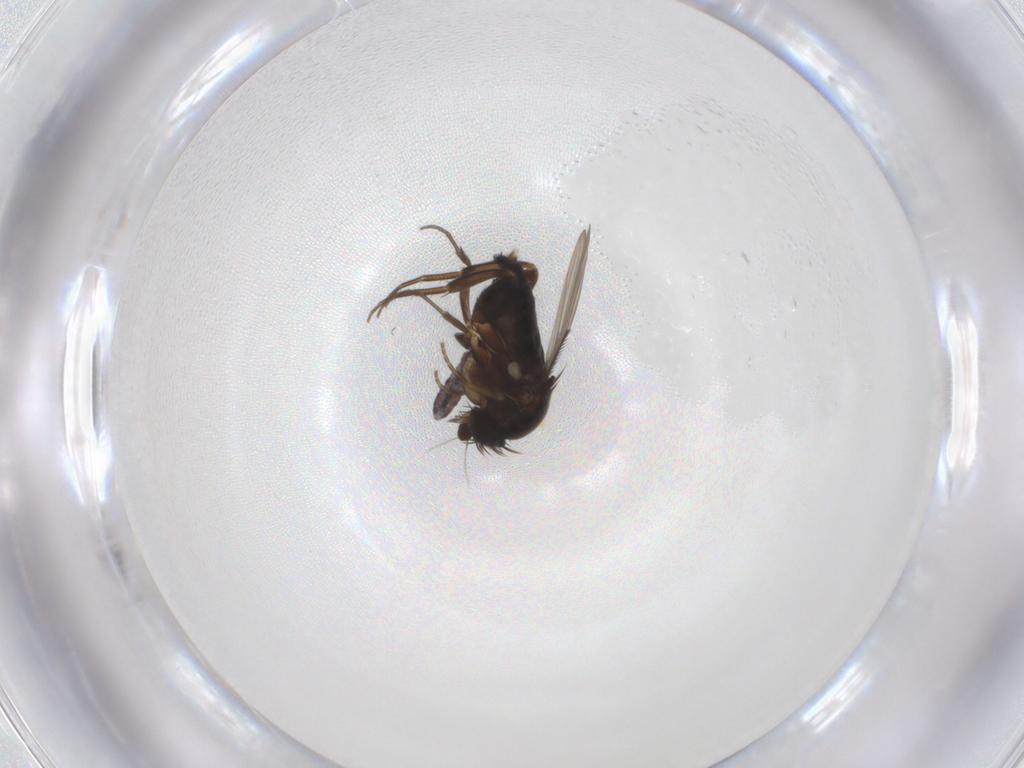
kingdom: Animalia
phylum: Arthropoda
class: Insecta
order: Diptera
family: Phoridae
